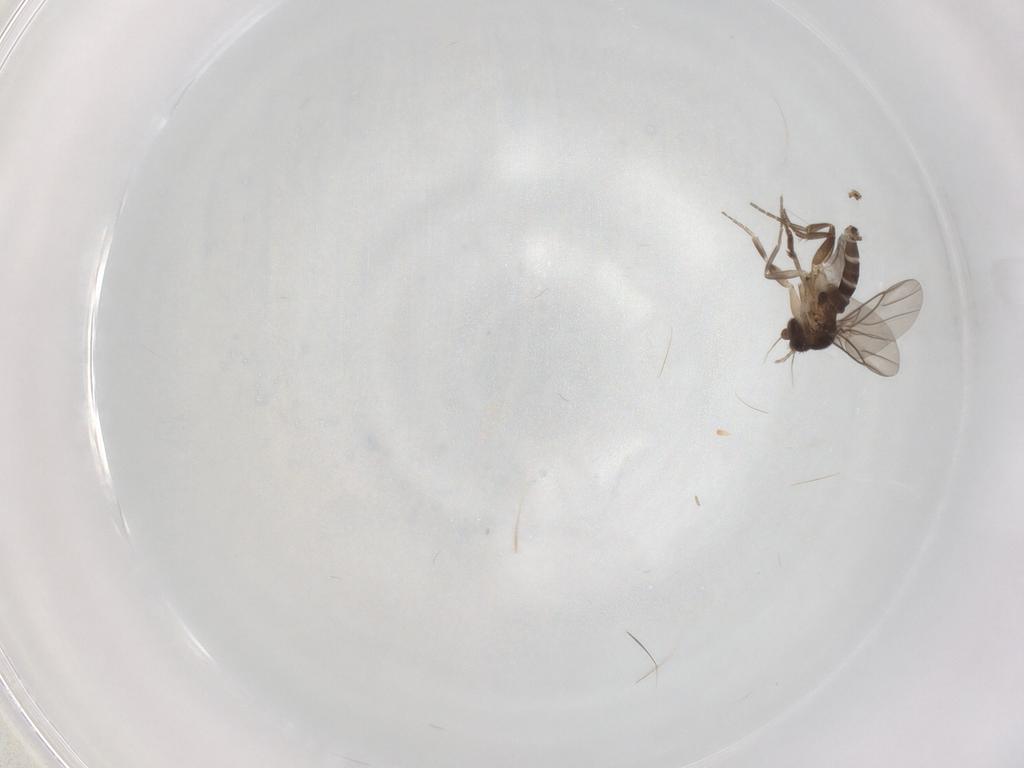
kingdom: Animalia
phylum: Arthropoda
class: Insecta
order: Diptera
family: Phoridae
